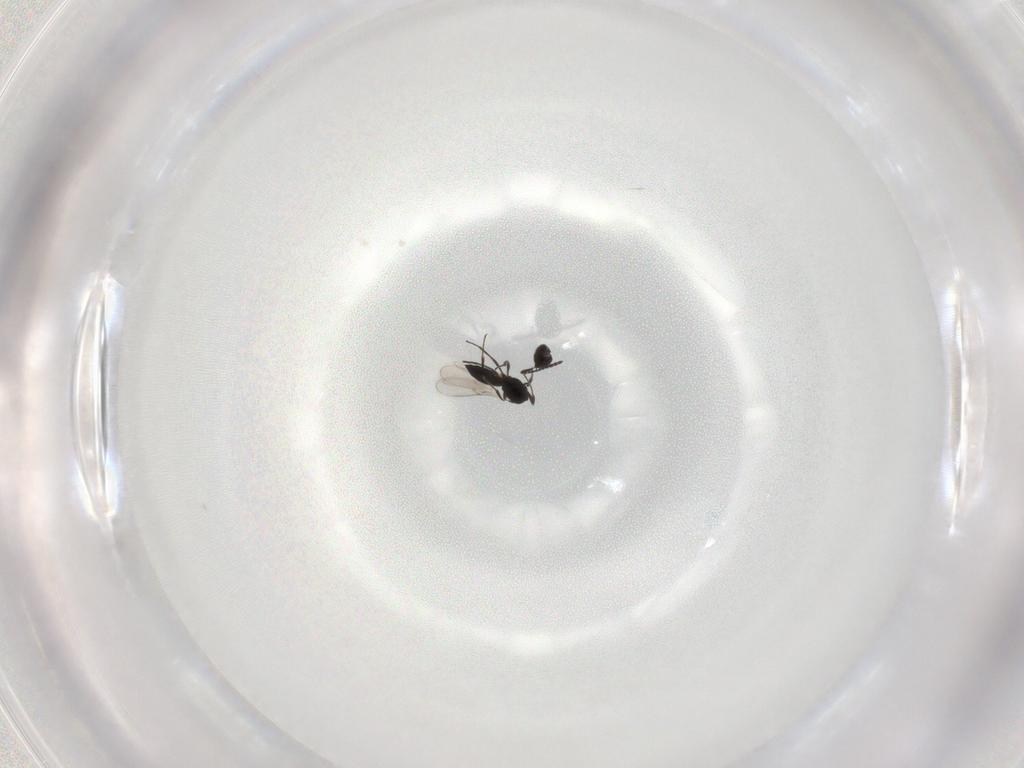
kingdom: Animalia
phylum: Arthropoda
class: Insecta
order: Hymenoptera
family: Scelionidae
